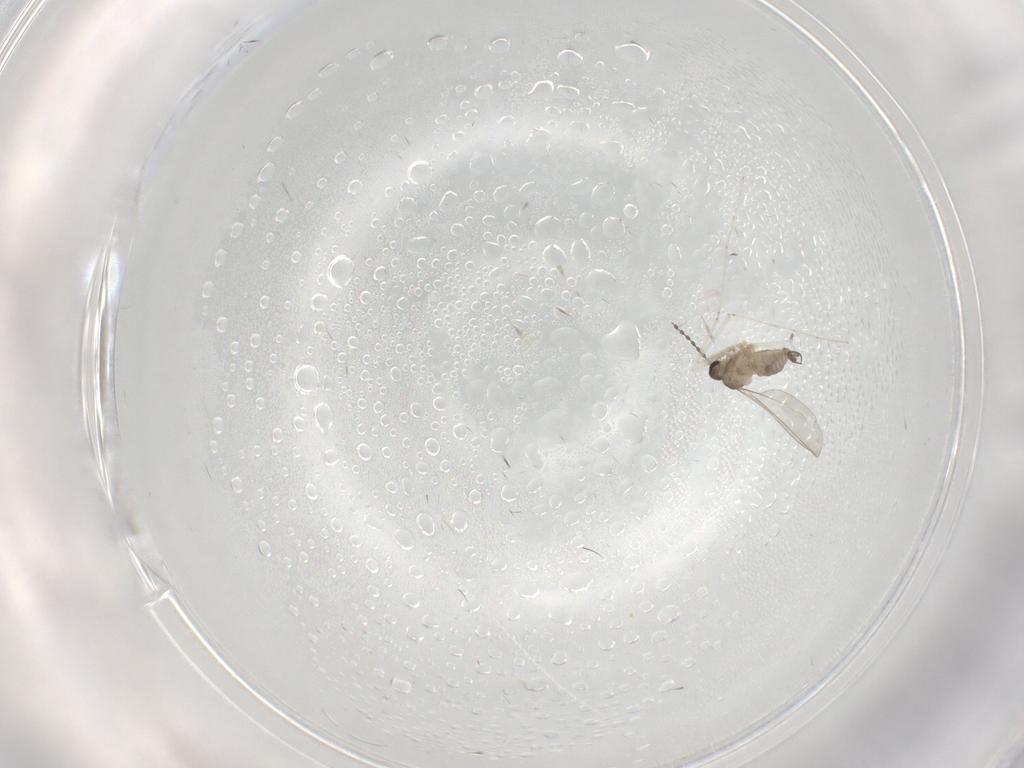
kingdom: Animalia
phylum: Arthropoda
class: Insecta
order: Diptera
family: Cecidomyiidae
